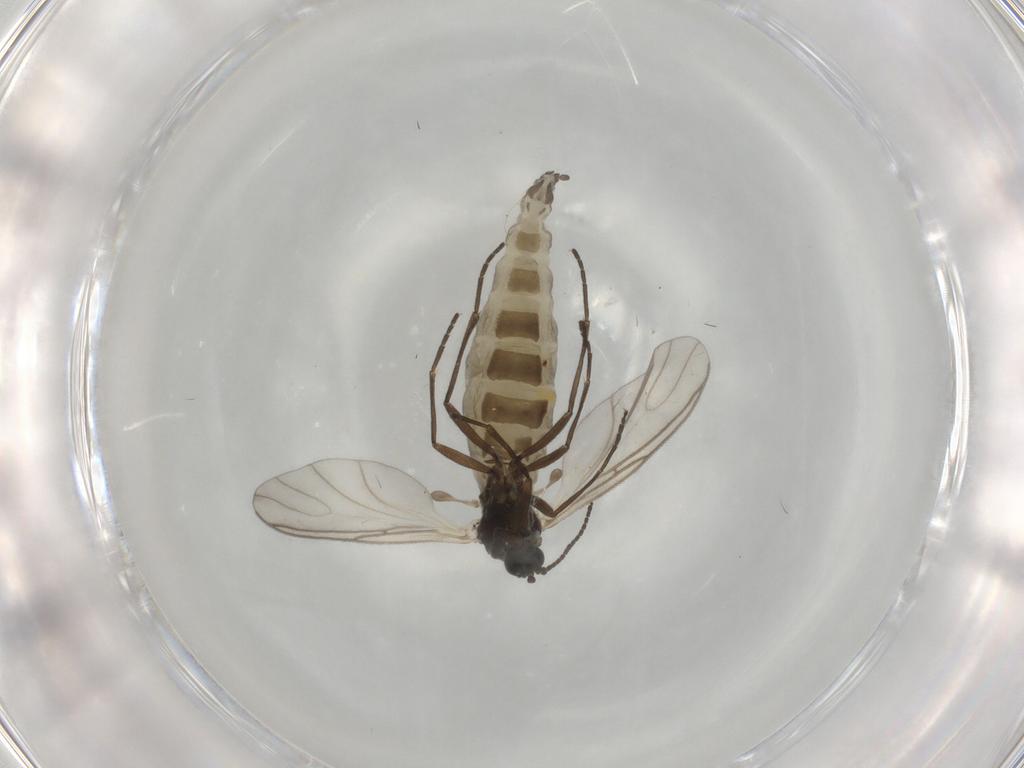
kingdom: Animalia
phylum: Arthropoda
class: Insecta
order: Diptera
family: Sciaridae
